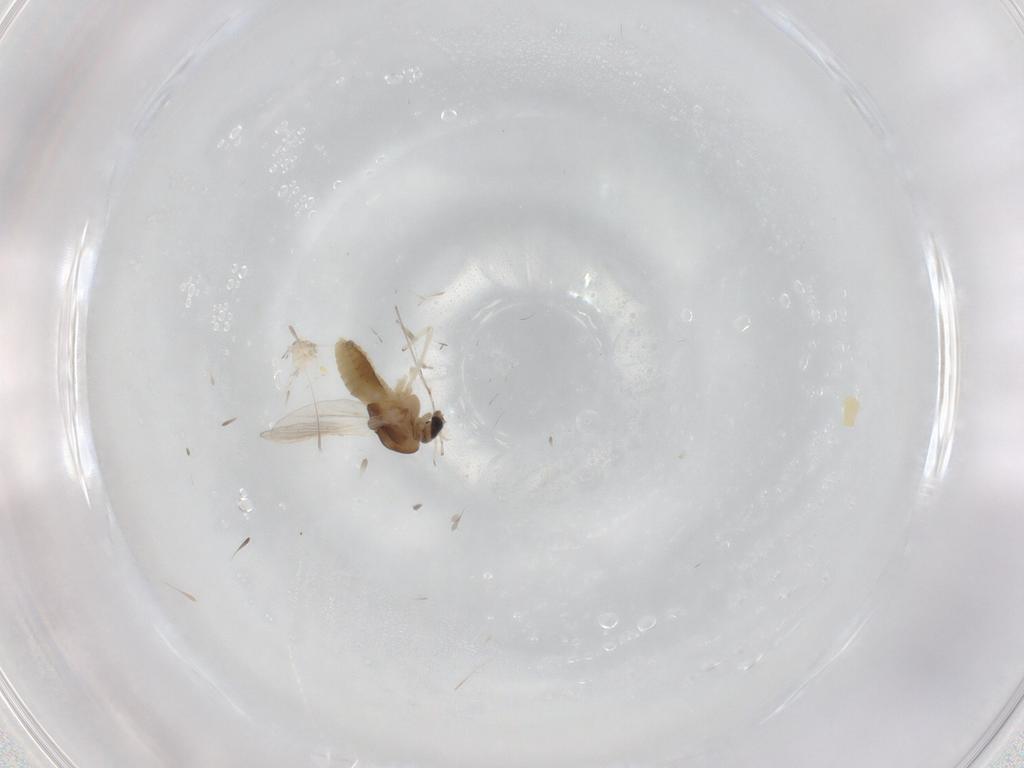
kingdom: Animalia
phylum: Arthropoda
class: Insecta
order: Diptera
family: Cecidomyiidae
